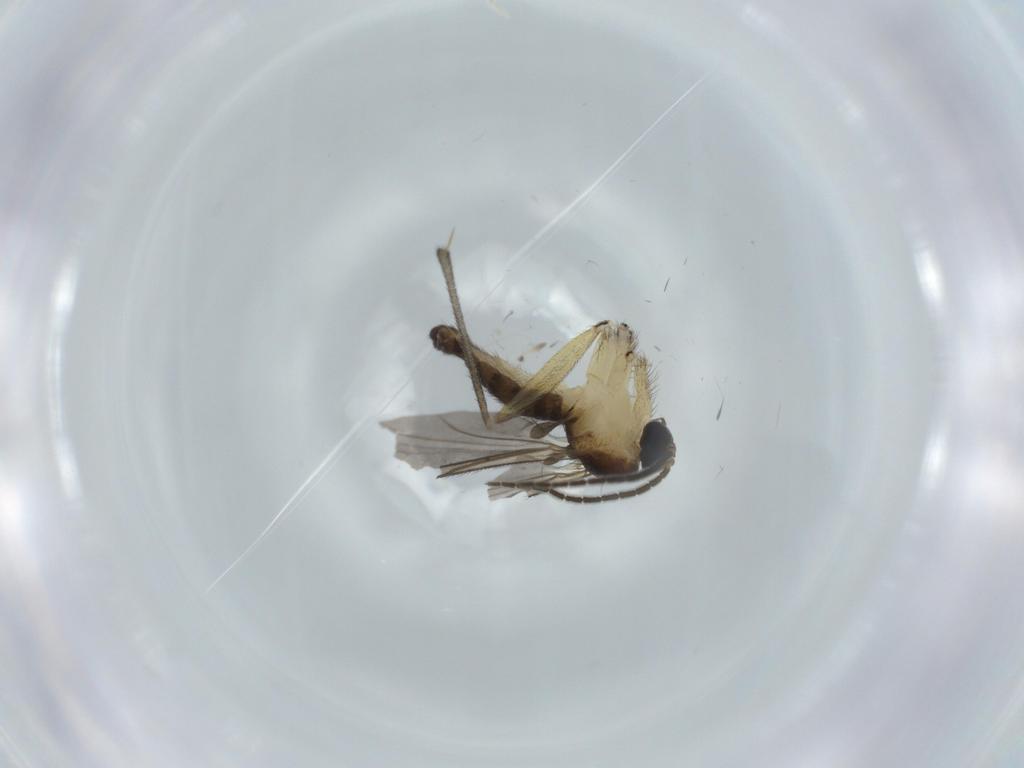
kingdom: Animalia
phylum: Arthropoda
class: Insecta
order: Diptera
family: Sciaridae
